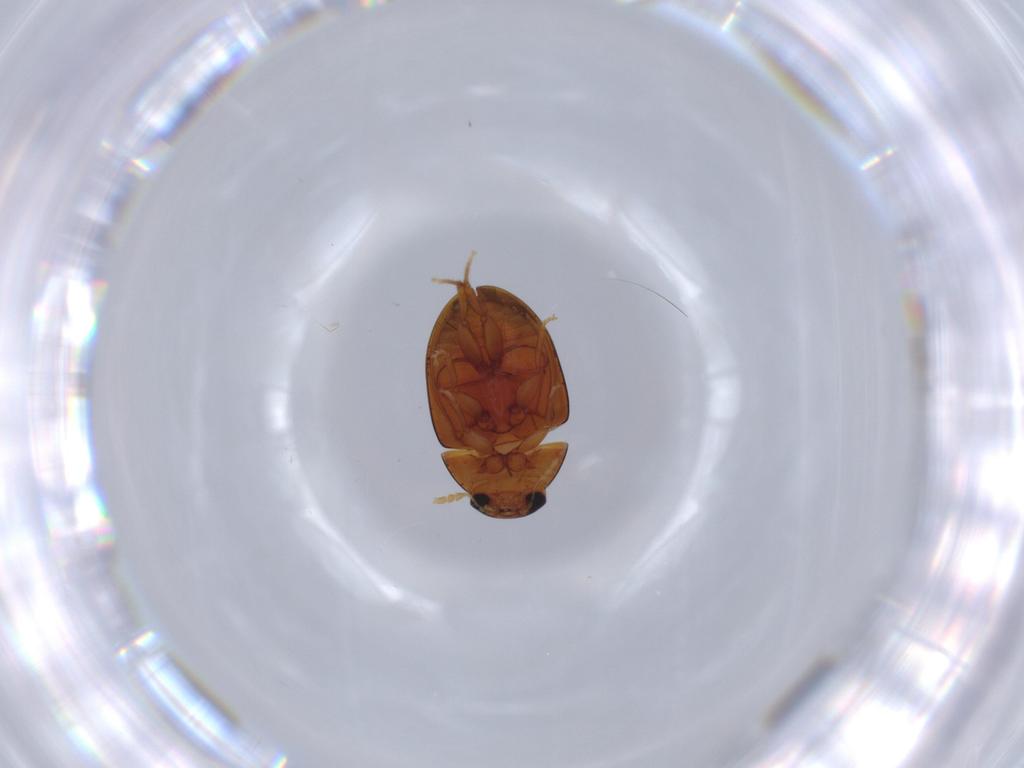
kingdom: Animalia
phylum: Arthropoda
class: Insecta
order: Coleoptera
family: Phalacridae
